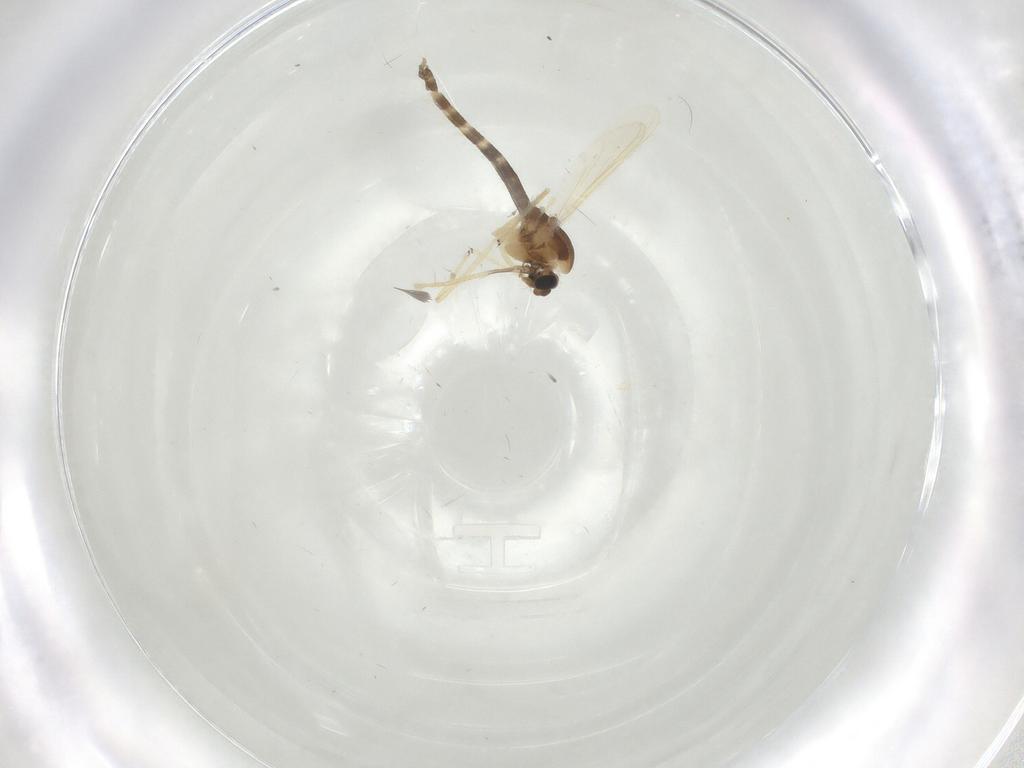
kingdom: Animalia
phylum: Arthropoda
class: Insecta
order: Diptera
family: Chironomidae
